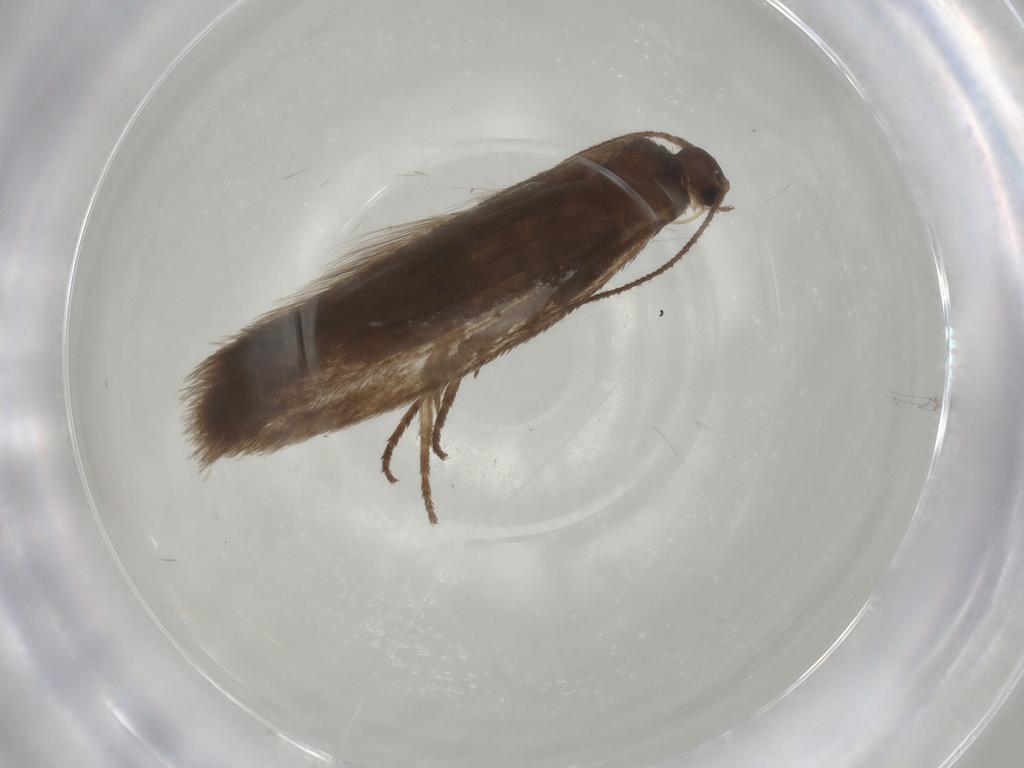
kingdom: Animalia
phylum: Arthropoda
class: Insecta
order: Lepidoptera
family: Limacodidae
